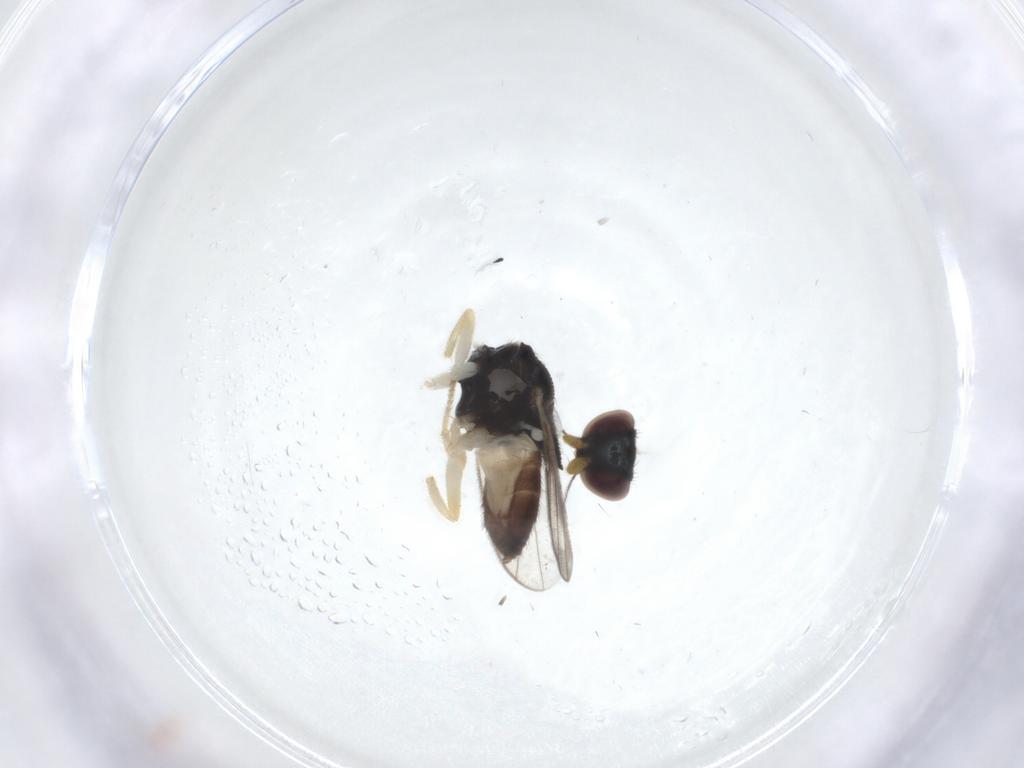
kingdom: Animalia
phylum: Arthropoda
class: Insecta
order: Diptera
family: Chloropidae
